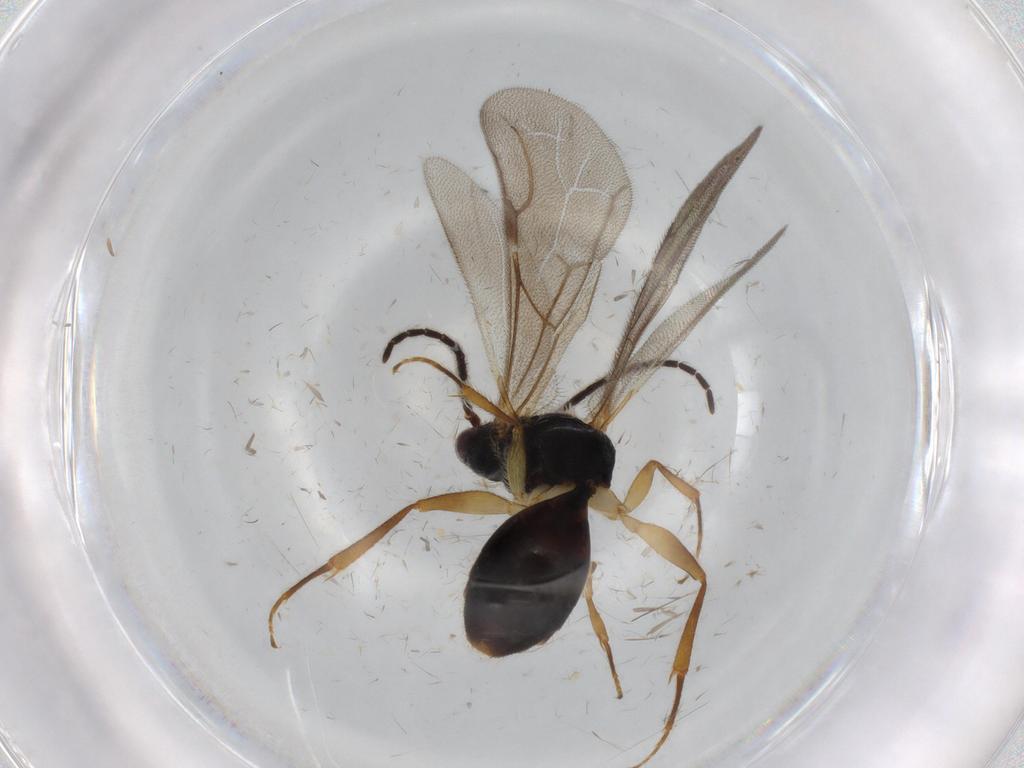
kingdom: Animalia
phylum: Arthropoda
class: Insecta
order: Hymenoptera
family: Bethylidae
